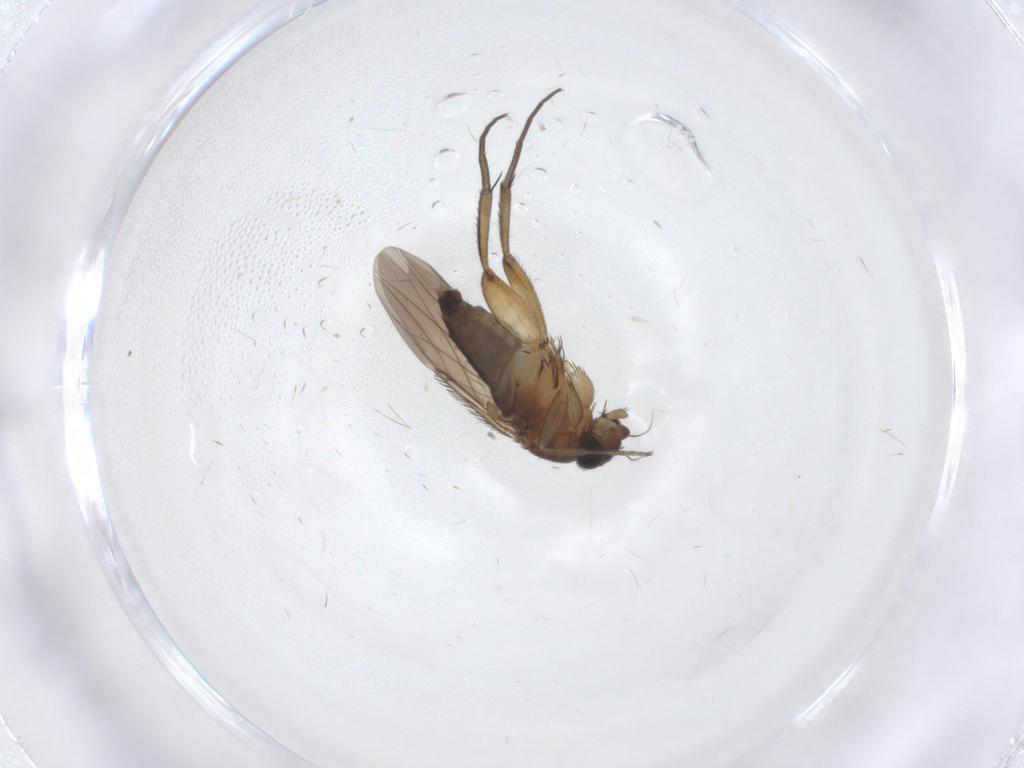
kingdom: Animalia
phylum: Arthropoda
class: Insecta
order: Diptera
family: Phoridae
